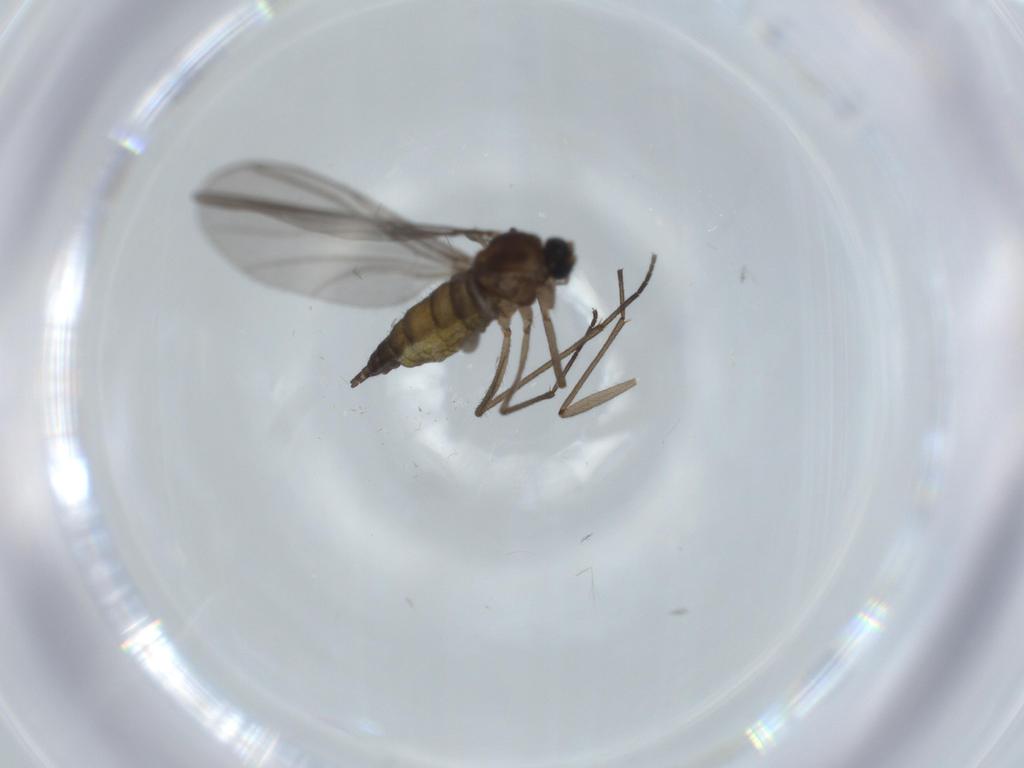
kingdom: Animalia
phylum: Arthropoda
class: Insecta
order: Diptera
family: Sciaridae
